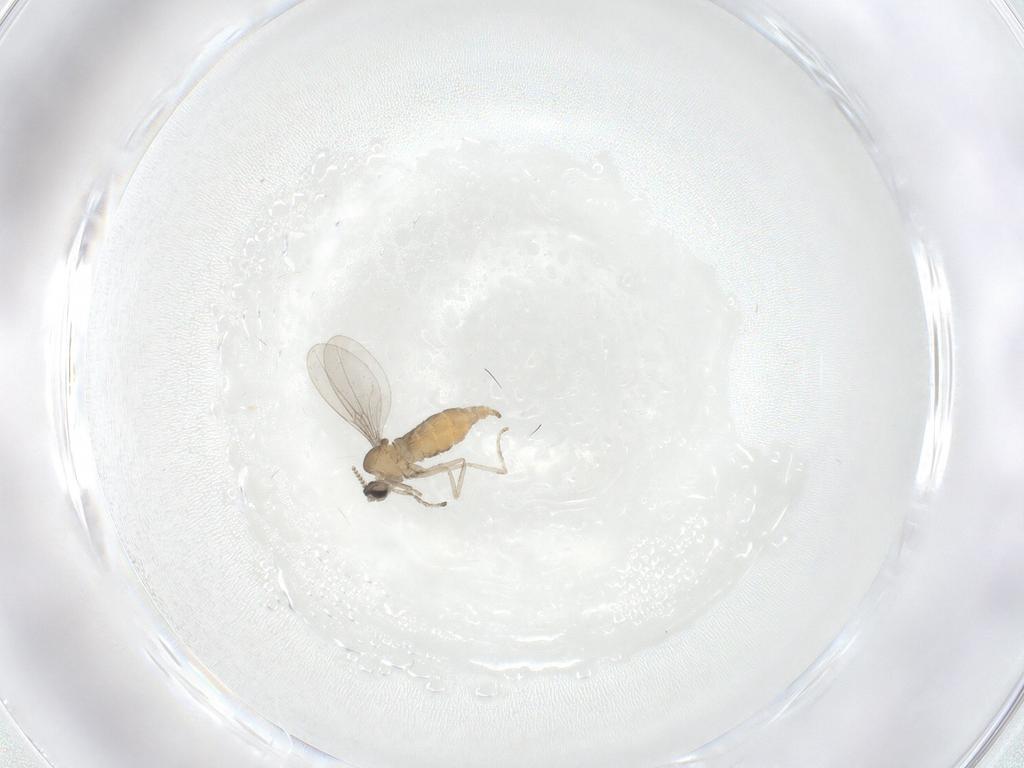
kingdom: Animalia
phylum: Arthropoda
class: Insecta
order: Diptera
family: Cecidomyiidae
